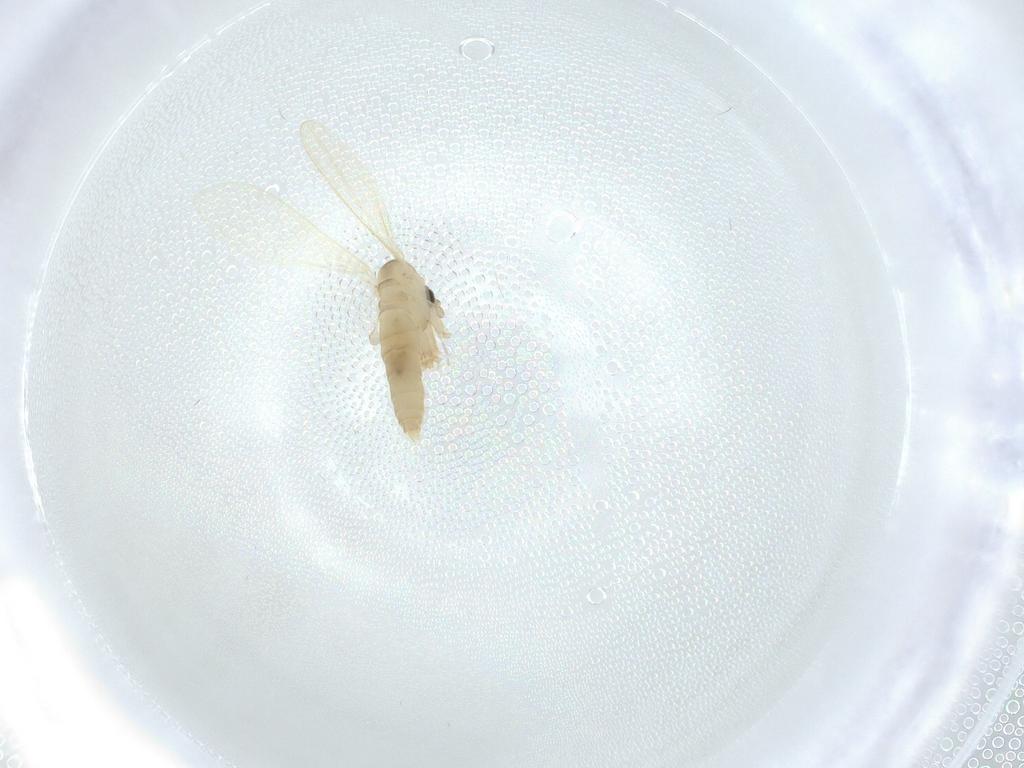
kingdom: Animalia
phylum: Arthropoda
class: Insecta
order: Diptera
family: Psychodidae
